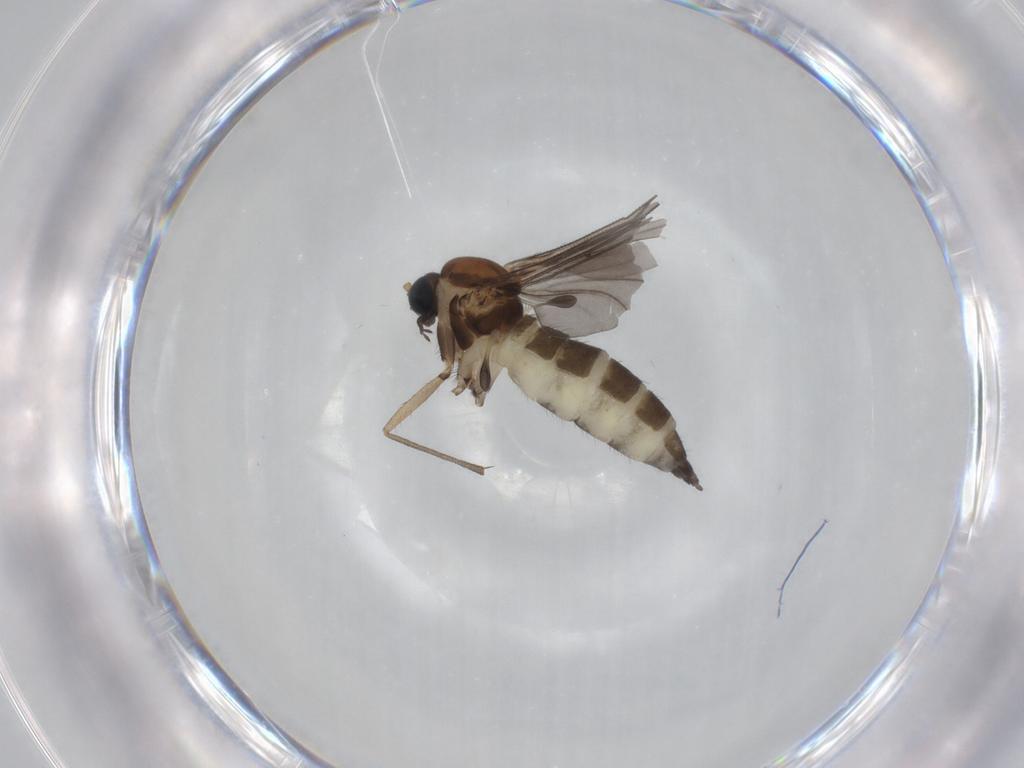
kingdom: Animalia
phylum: Arthropoda
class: Insecta
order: Diptera
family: Sciaridae
